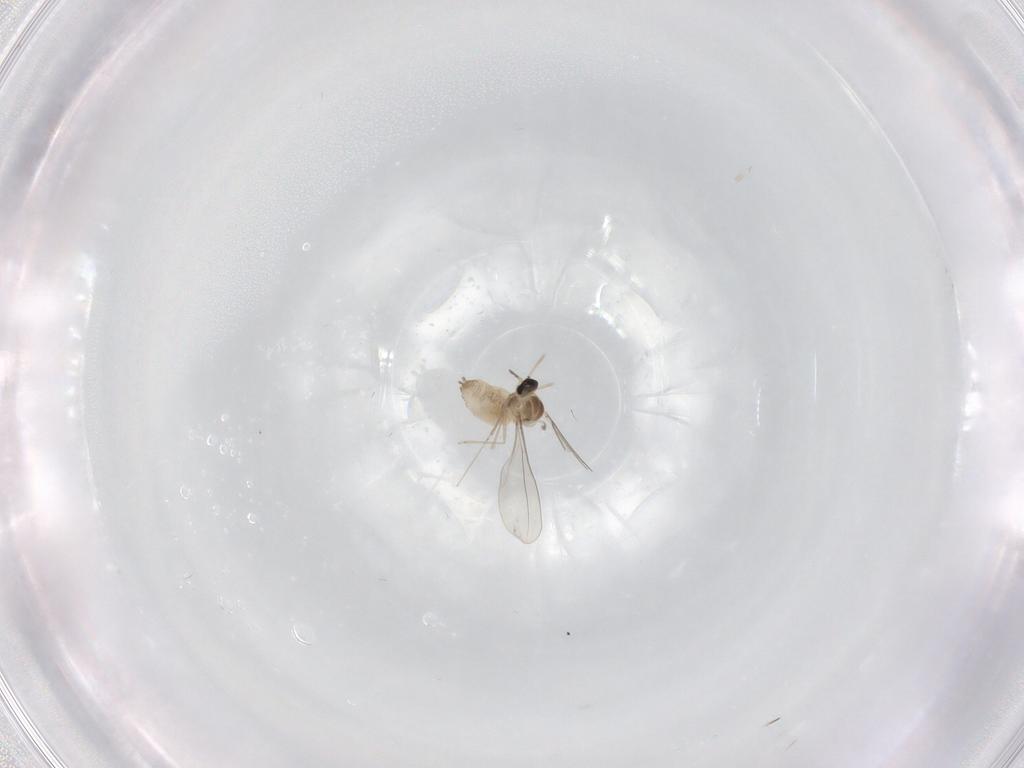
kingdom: Animalia
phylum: Arthropoda
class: Insecta
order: Diptera
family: Cecidomyiidae
